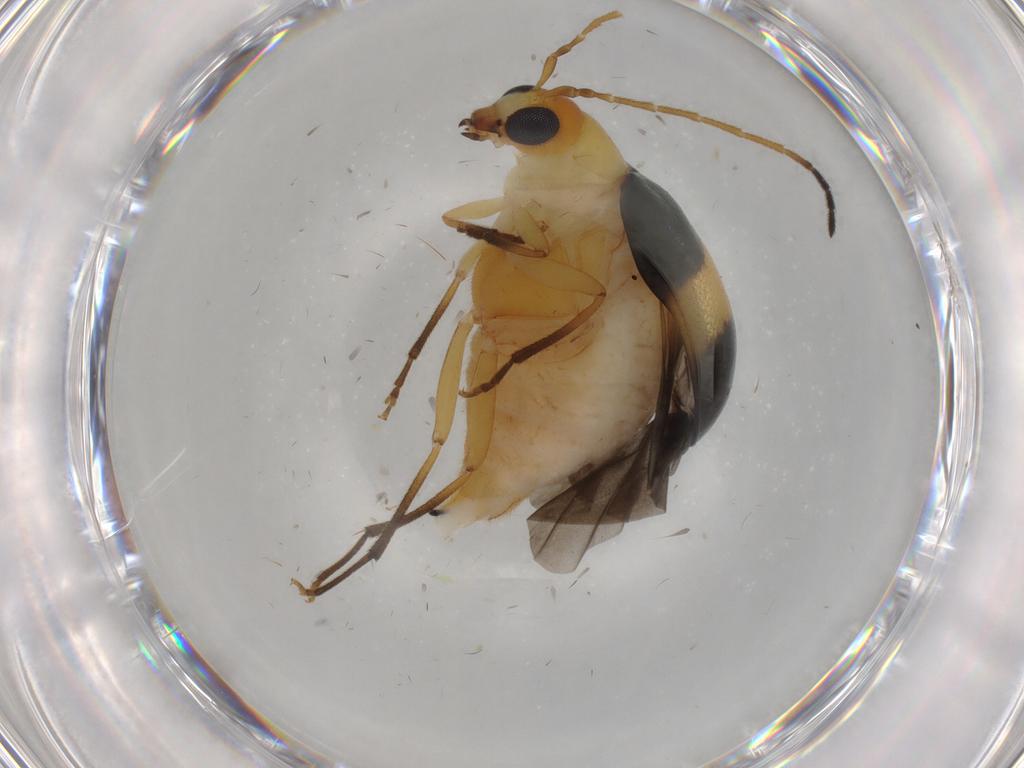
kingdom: Animalia
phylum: Arthropoda
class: Insecta
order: Coleoptera
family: Chrysomelidae
